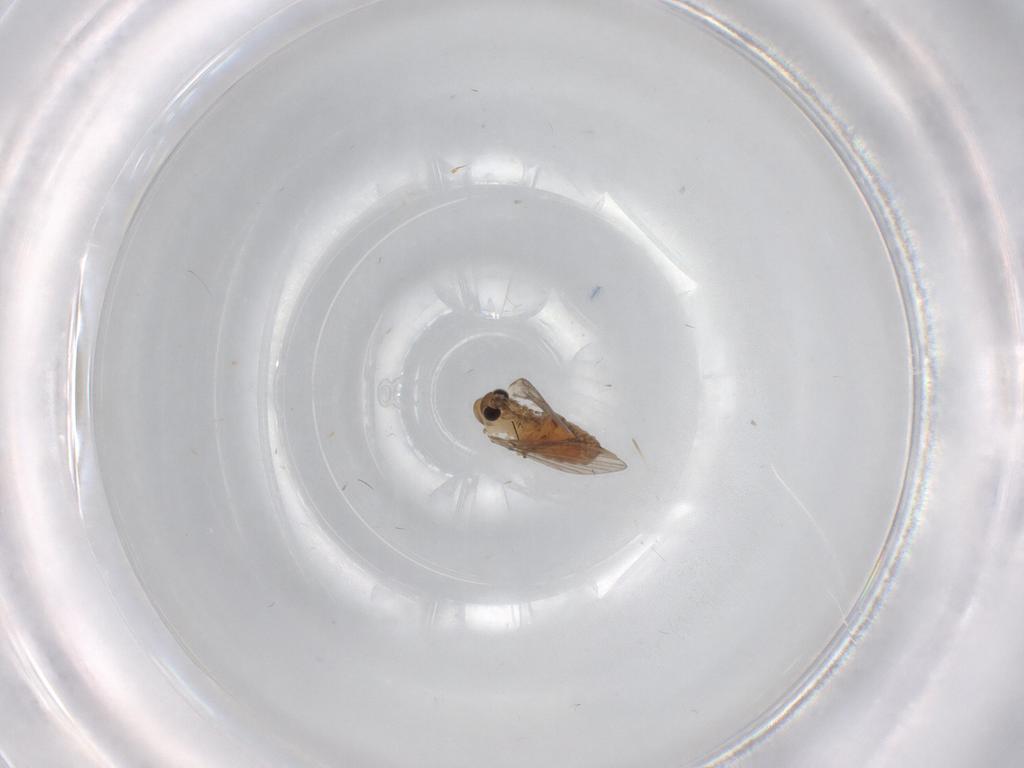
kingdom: Animalia
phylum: Arthropoda
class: Insecta
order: Diptera
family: Psychodidae
